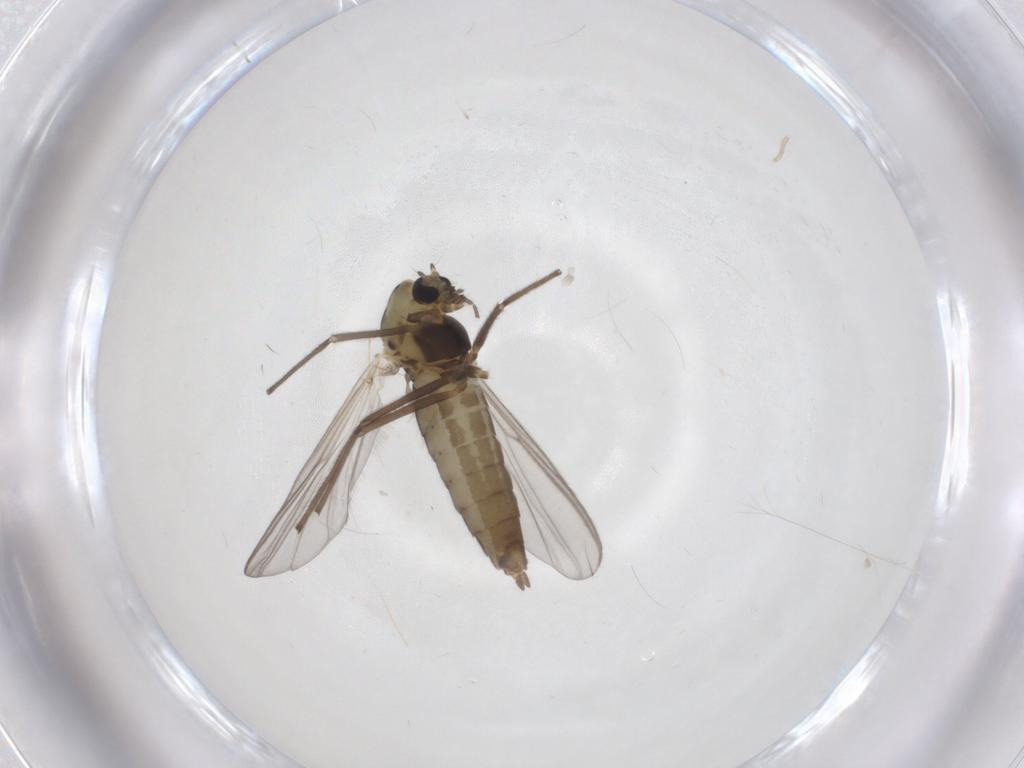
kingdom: Animalia
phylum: Arthropoda
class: Insecta
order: Diptera
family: Chironomidae
